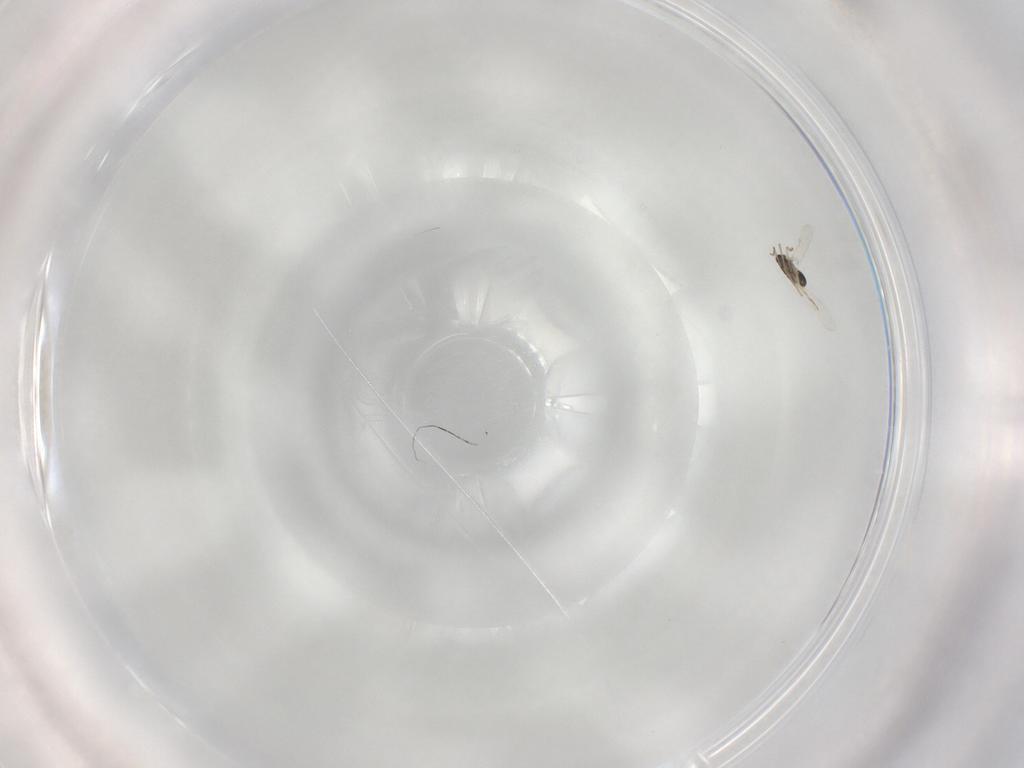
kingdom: Animalia
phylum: Arthropoda
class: Insecta
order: Diptera
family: Ceratopogonidae
